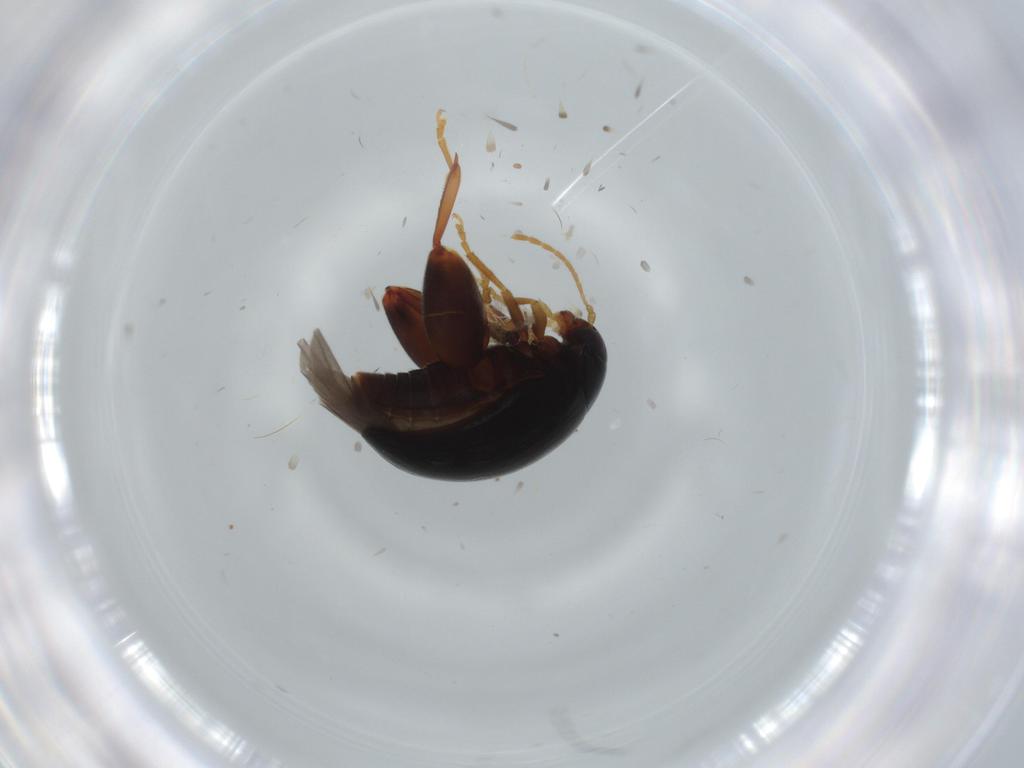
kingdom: Animalia
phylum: Arthropoda
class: Insecta
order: Coleoptera
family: Chrysomelidae
